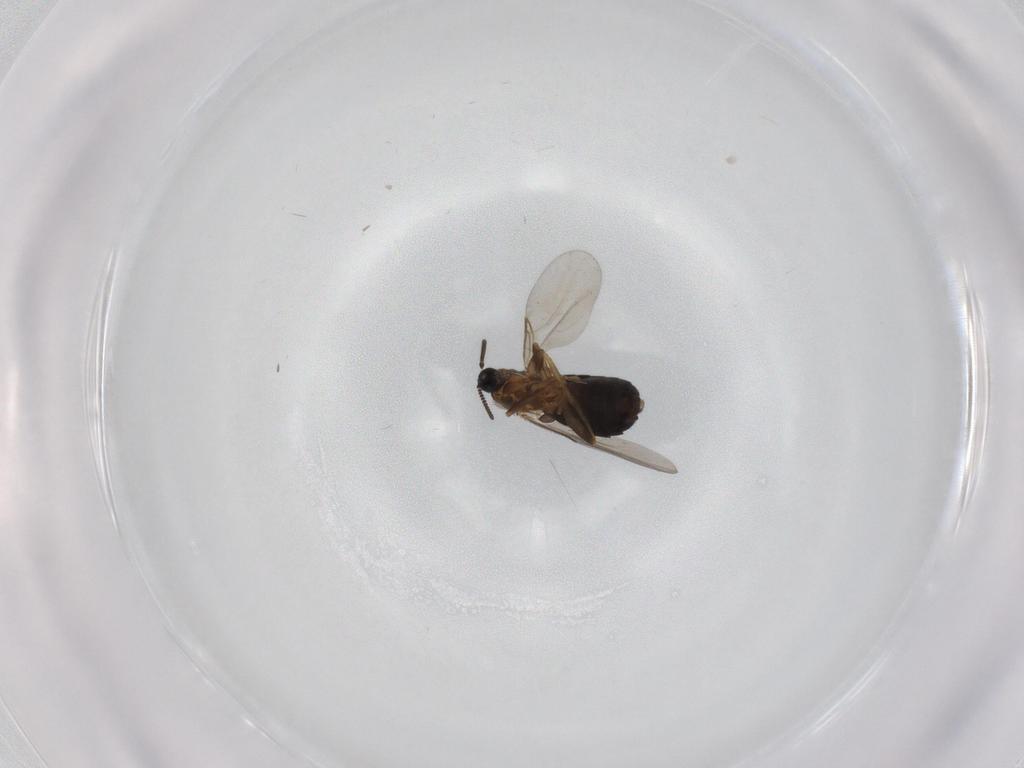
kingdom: Animalia
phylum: Arthropoda
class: Insecta
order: Diptera
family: Scatopsidae
